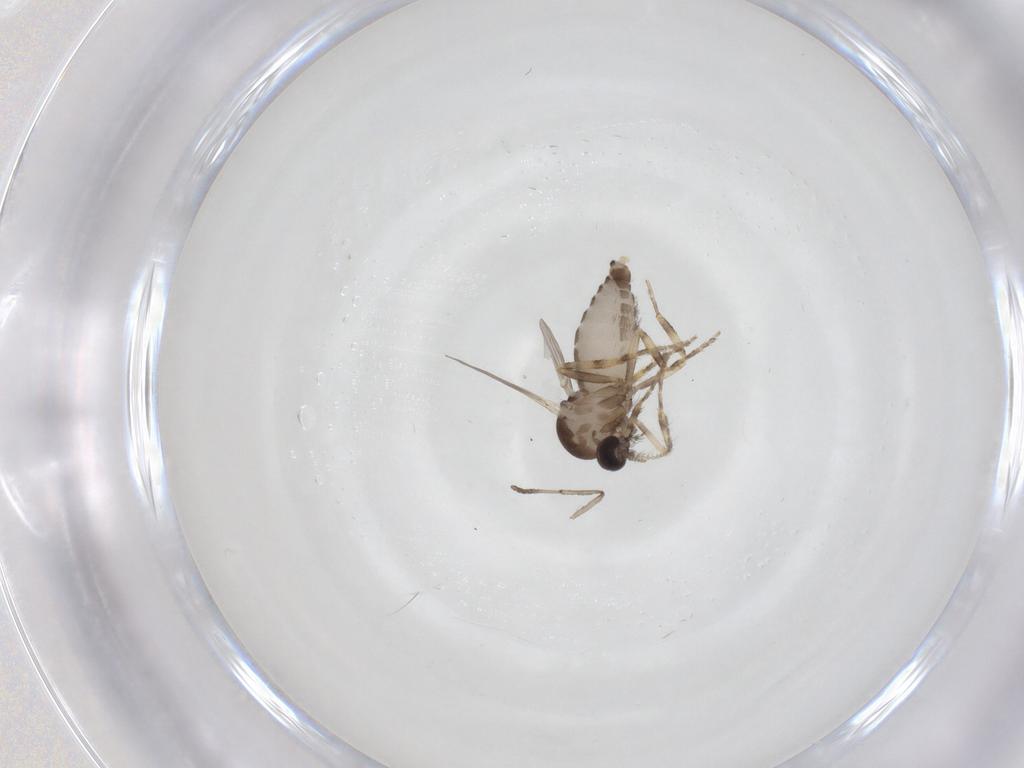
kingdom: Animalia
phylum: Arthropoda
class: Insecta
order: Diptera
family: Ceratopogonidae
